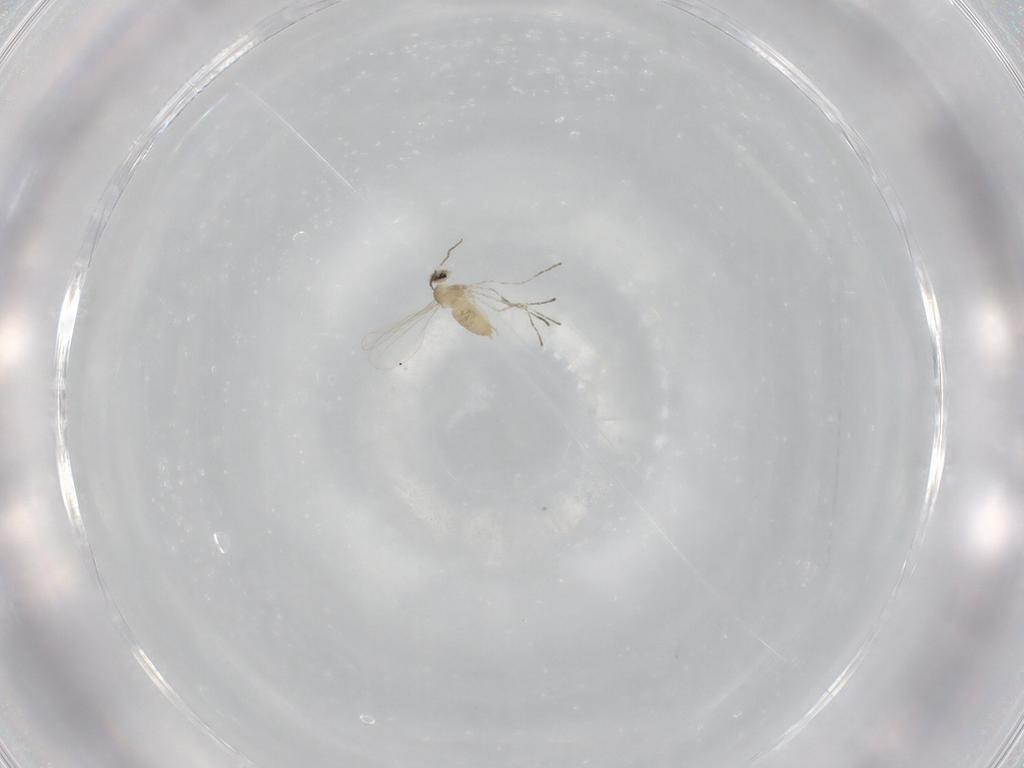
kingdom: Animalia
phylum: Arthropoda
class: Insecta
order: Diptera
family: Cecidomyiidae
